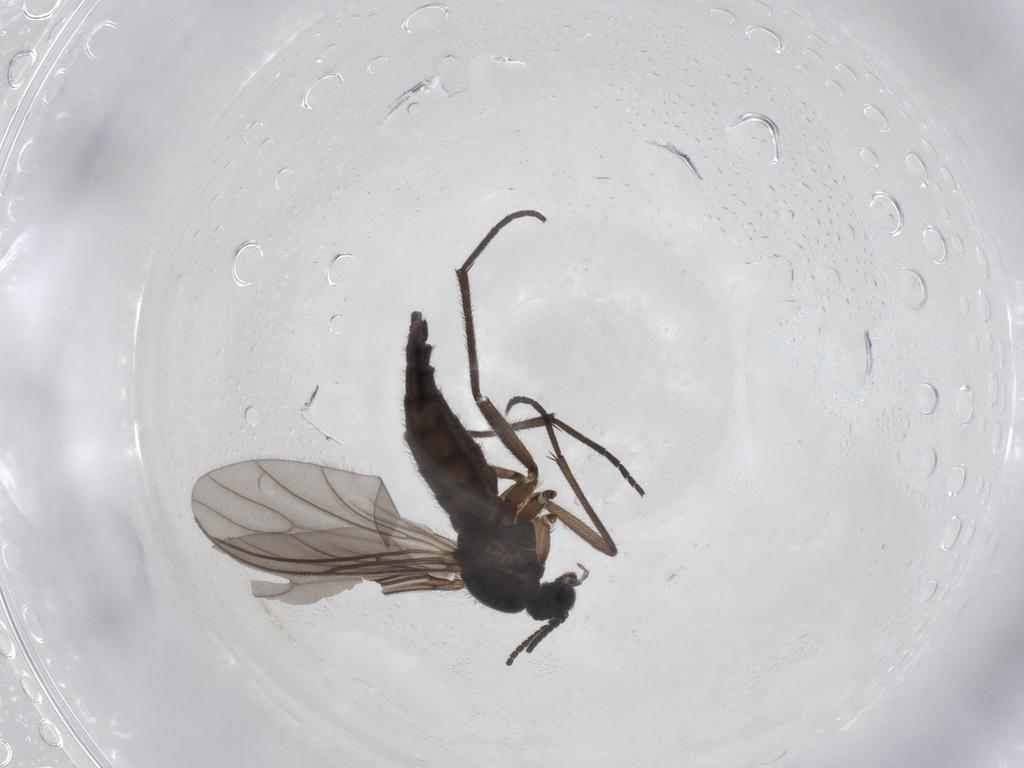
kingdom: Animalia
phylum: Arthropoda
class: Insecta
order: Diptera
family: Sciaridae
